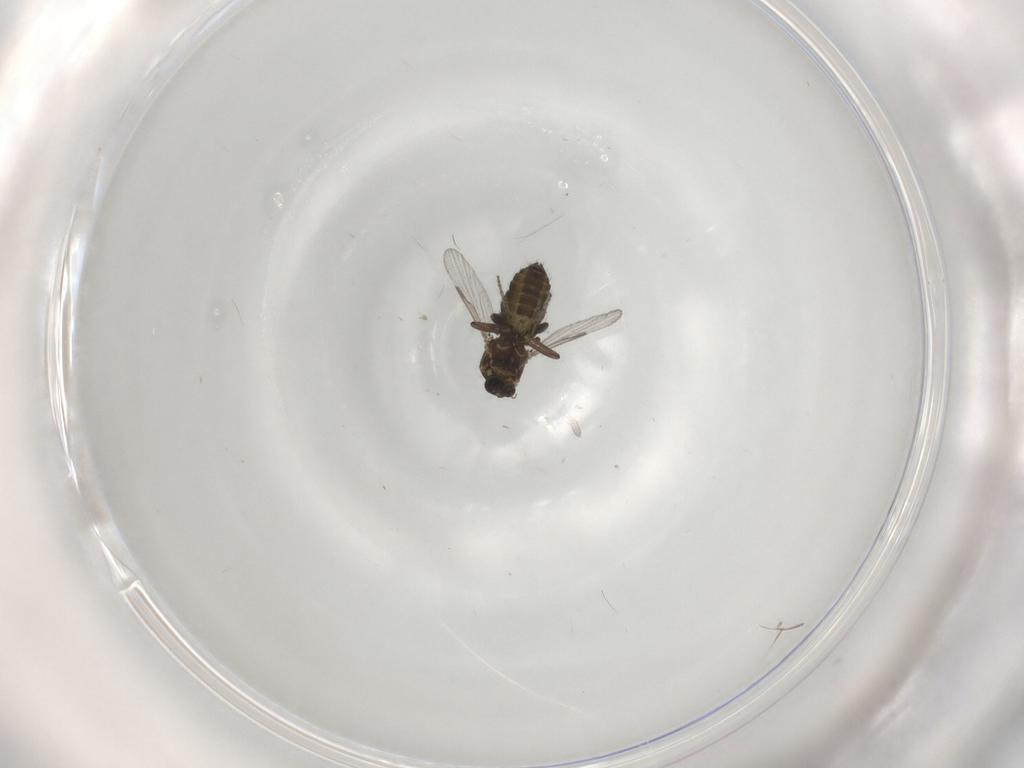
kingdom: Animalia
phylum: Arthropoda
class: Insecta
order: Diptera
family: Ceratopogonidae
